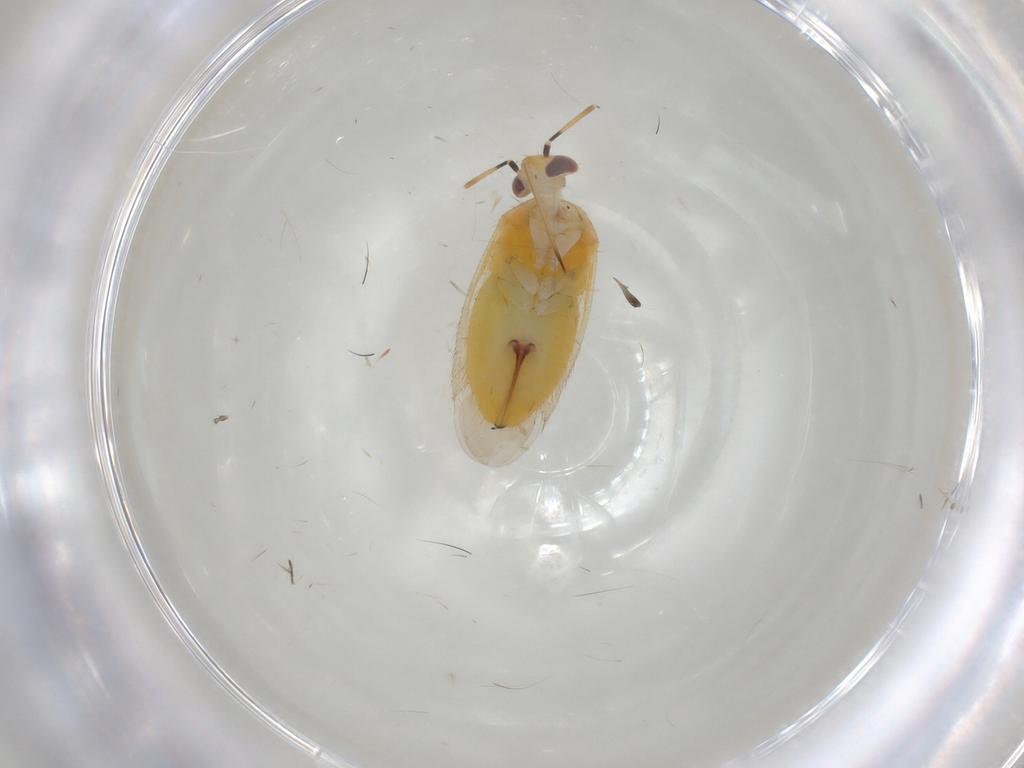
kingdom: Animalia
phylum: Arthropoda
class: Insecta
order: Hemiptera
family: Miridae
